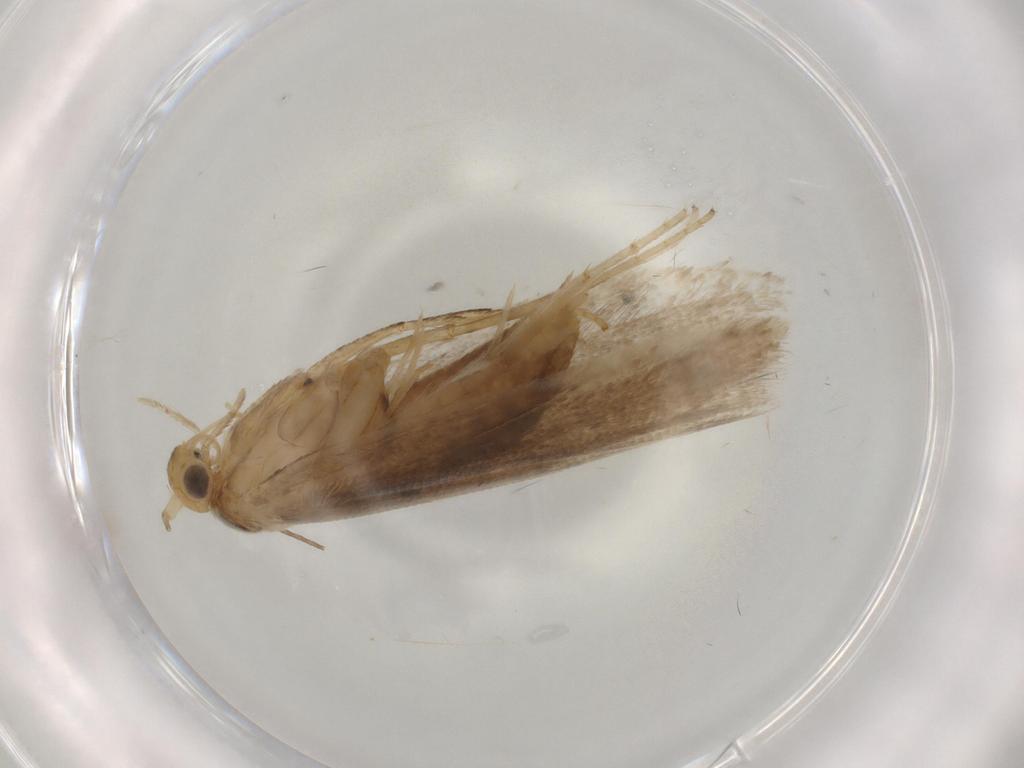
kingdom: Animalia
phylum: Arthropoda
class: Insecta
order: Lepidoptera
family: Argyresthiidae
